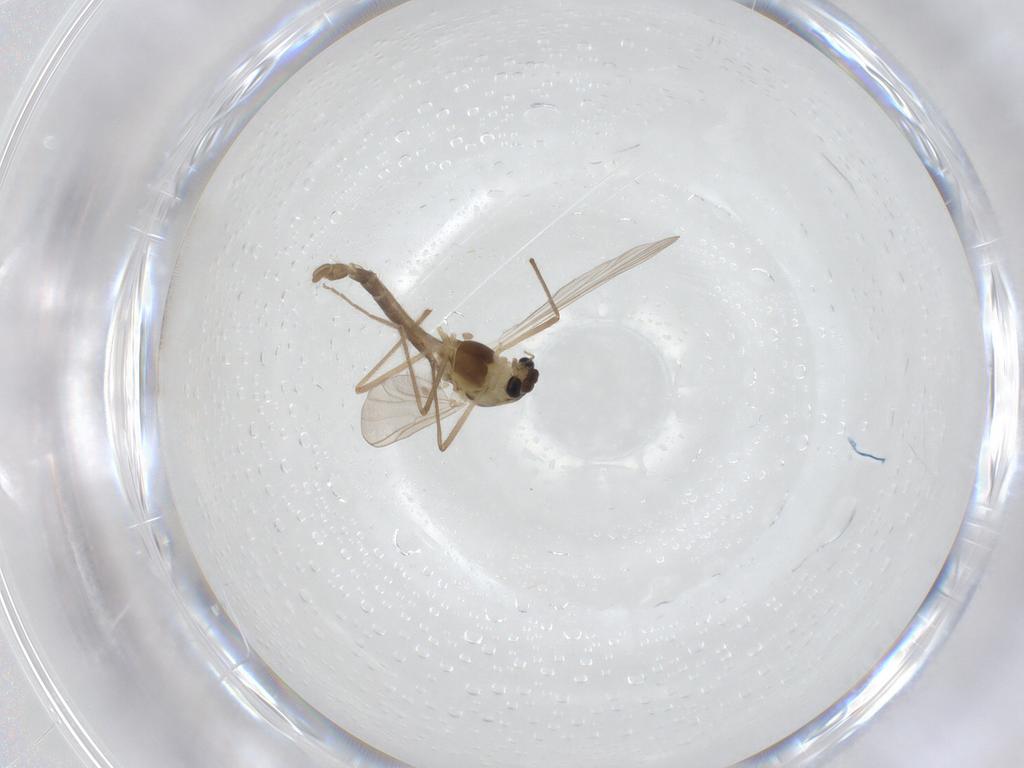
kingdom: Animalia
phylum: Arthropoda
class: Insecta
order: Diptera
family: Chironomidae
